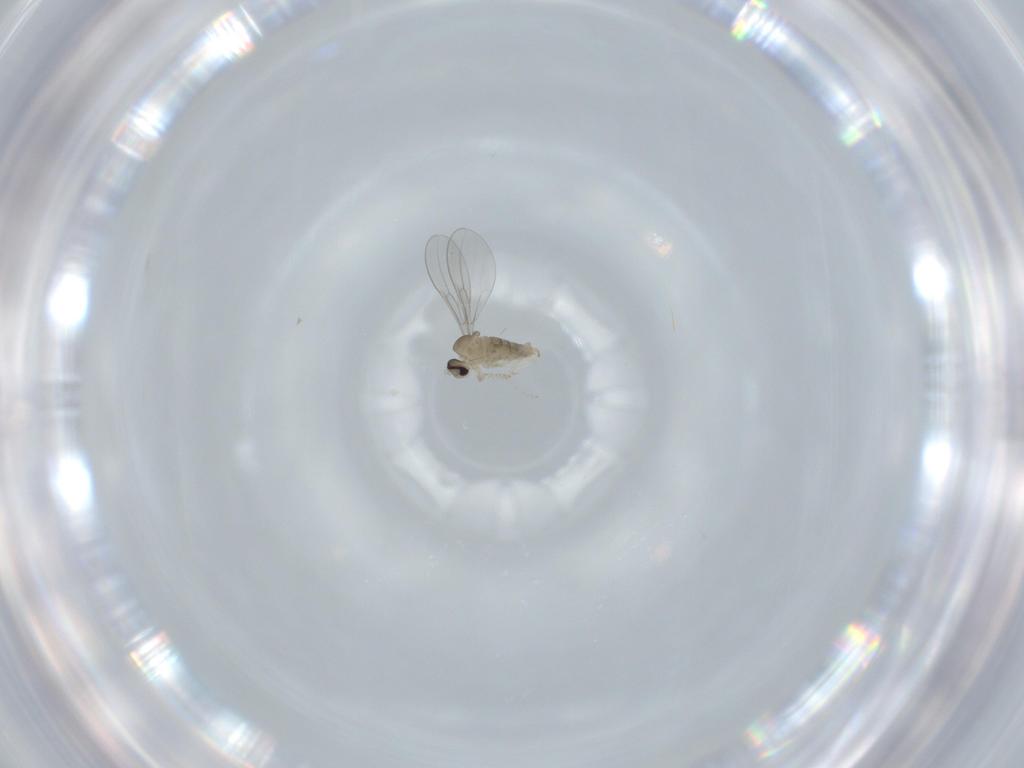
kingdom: Animalia
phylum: Arthropoda
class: Insecta
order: Diptera
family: Cecidomyiidae
